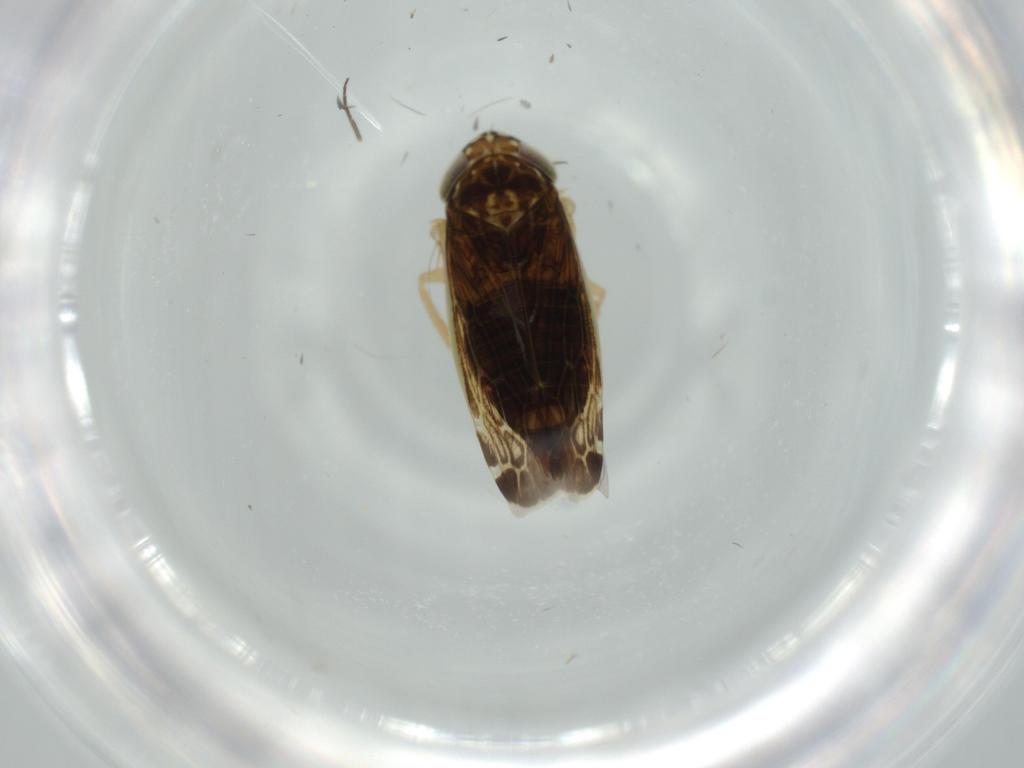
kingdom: Animalia
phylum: Arthropoda
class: Insecta
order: Hemiptera
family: Cicadellidae
